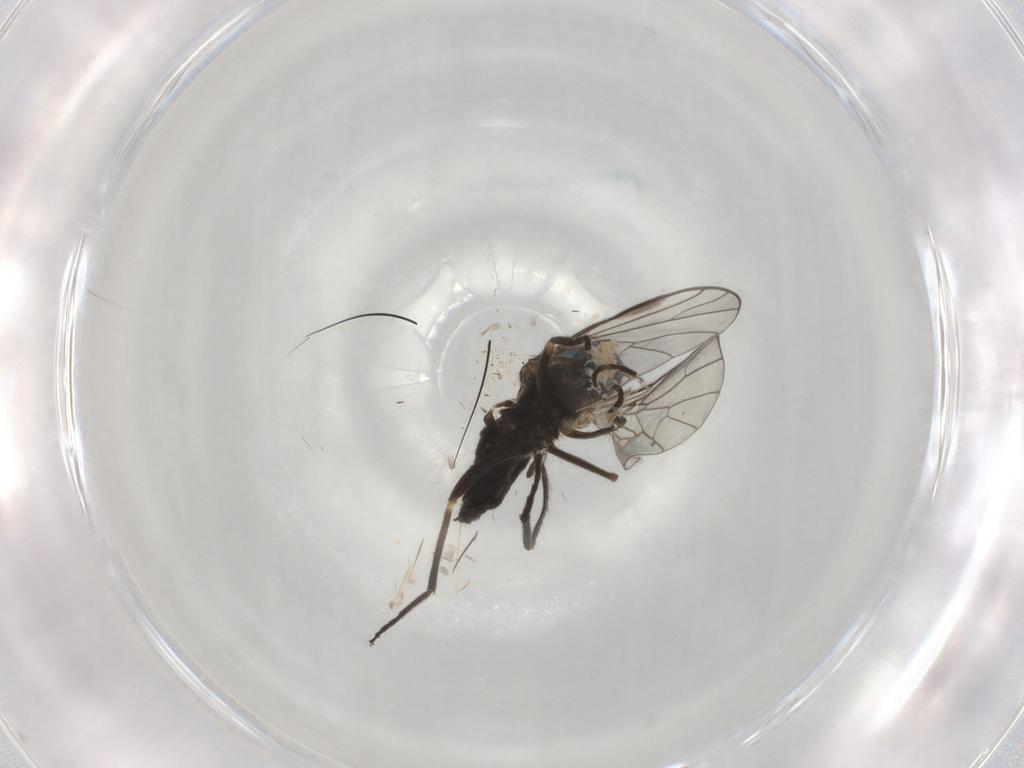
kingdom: Animalia
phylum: Arthropoda
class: Insecta
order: Diptera
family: Empididae
